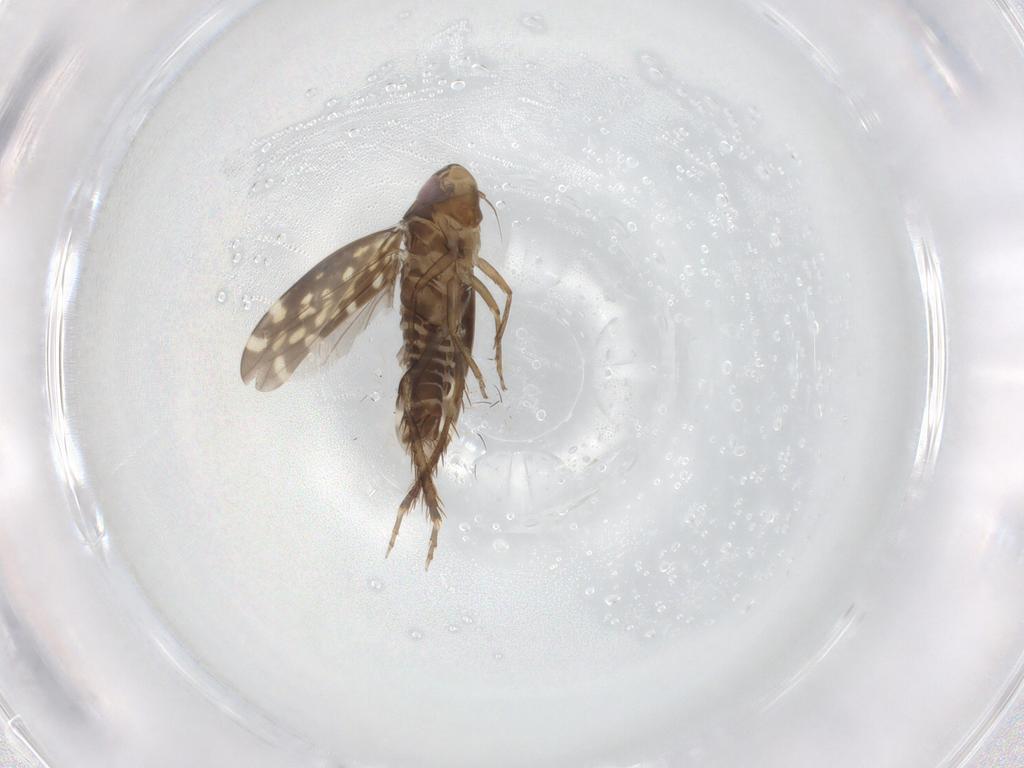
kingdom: Animalia
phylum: Arthropoda
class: Insecta
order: Hemiptera
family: Cicadellidae
